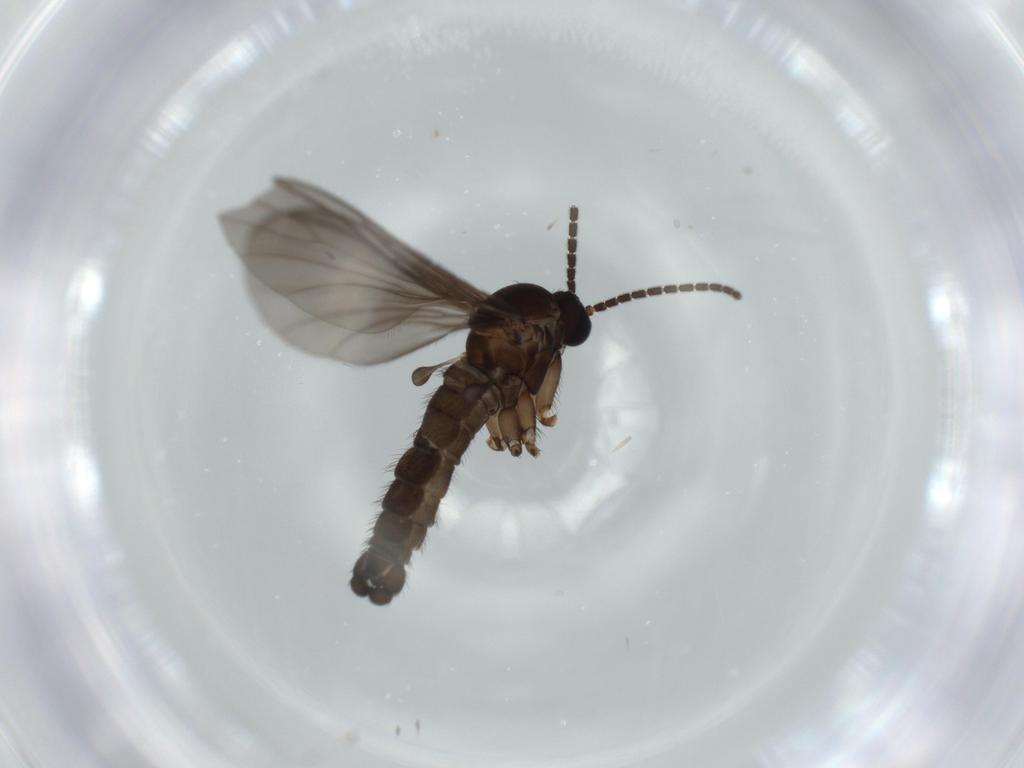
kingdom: Animalia
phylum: Arthropoda
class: Insecta
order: Diptera
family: Sciaridae
